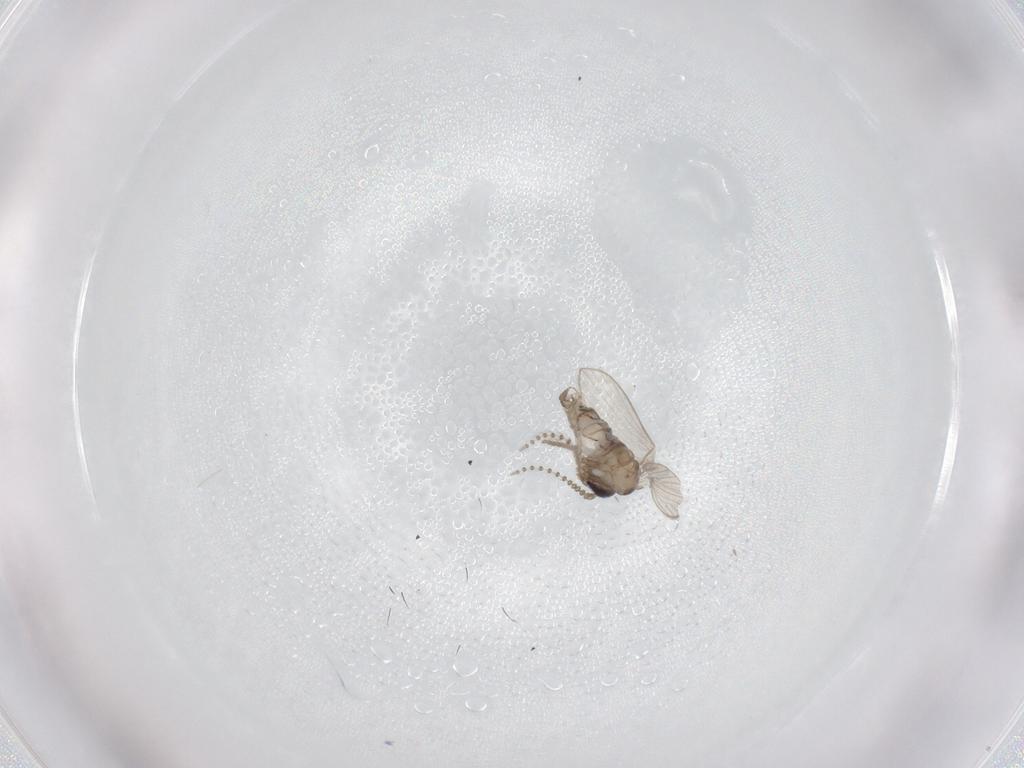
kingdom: Animalia
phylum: Arthropoda
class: Insecta
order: Diptera
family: Psychodidae
